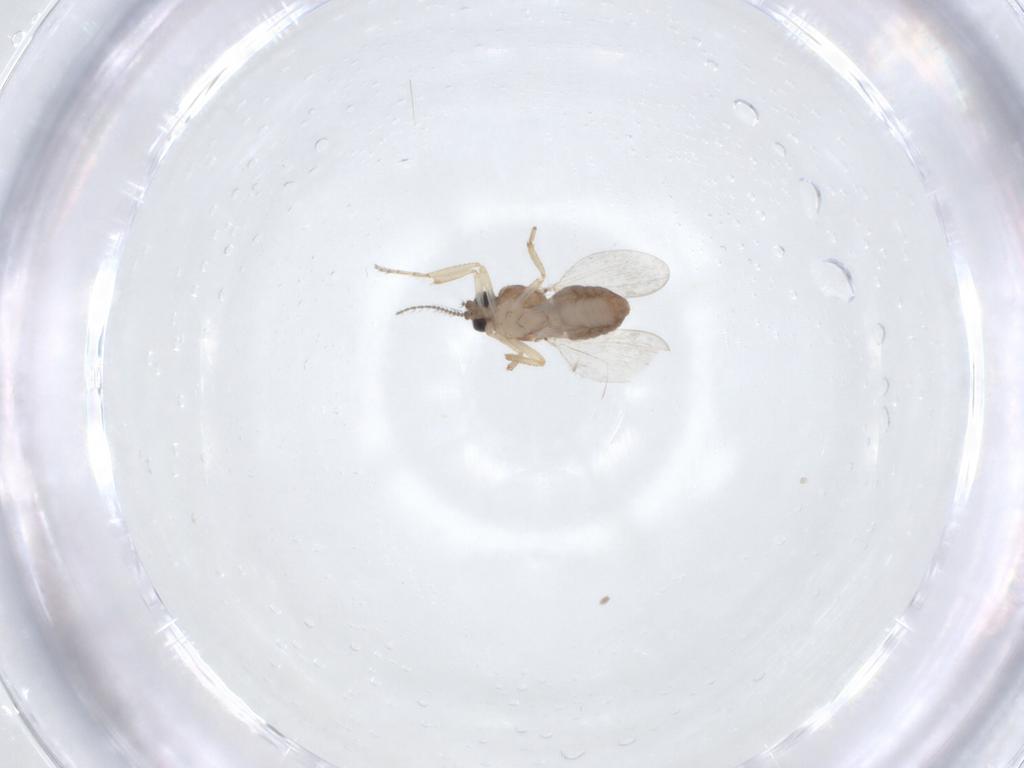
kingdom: Animalia
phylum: Arthropoda
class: Insecta
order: Diptera
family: Ceratopogonidae
